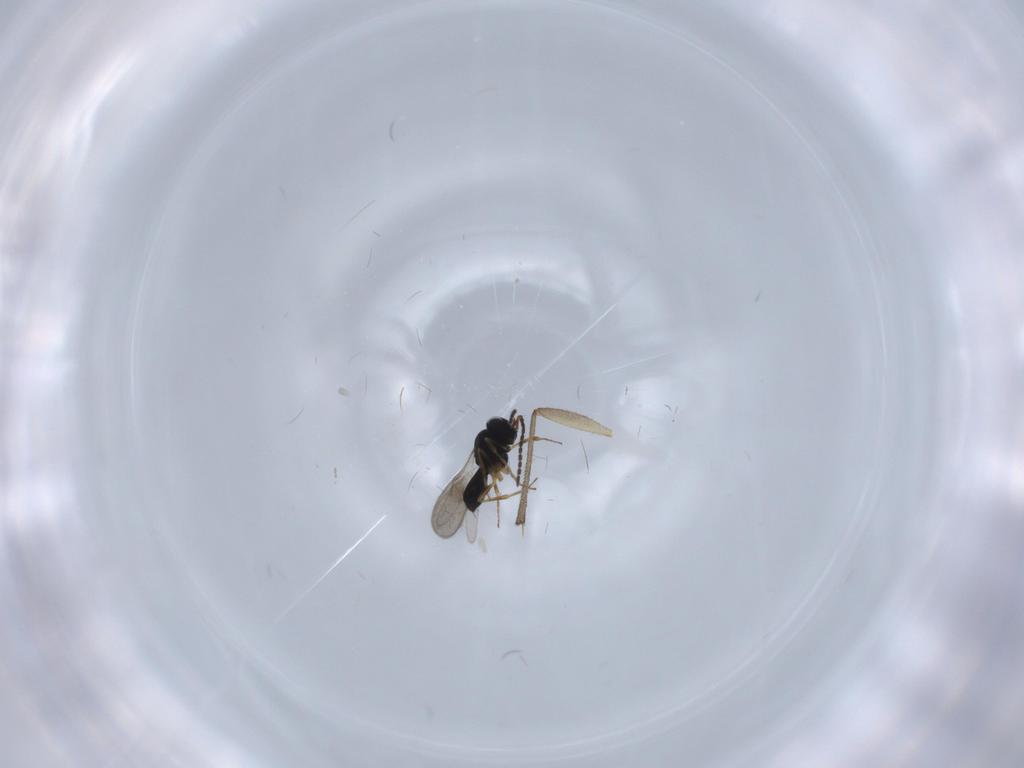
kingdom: Animalia
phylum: Arthropoda
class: Insecta
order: Hymenoptera
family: Scelionidae
